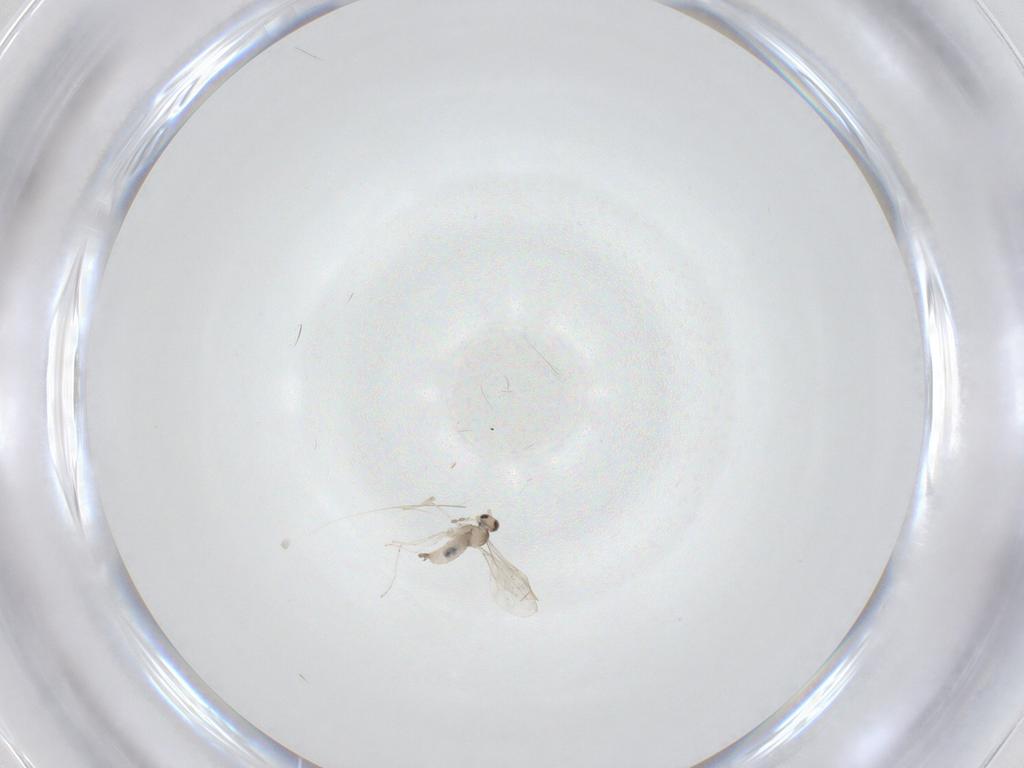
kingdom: Animalia
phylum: Arthropoda
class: Insecta
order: Diptera
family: Cecidomyiidae
